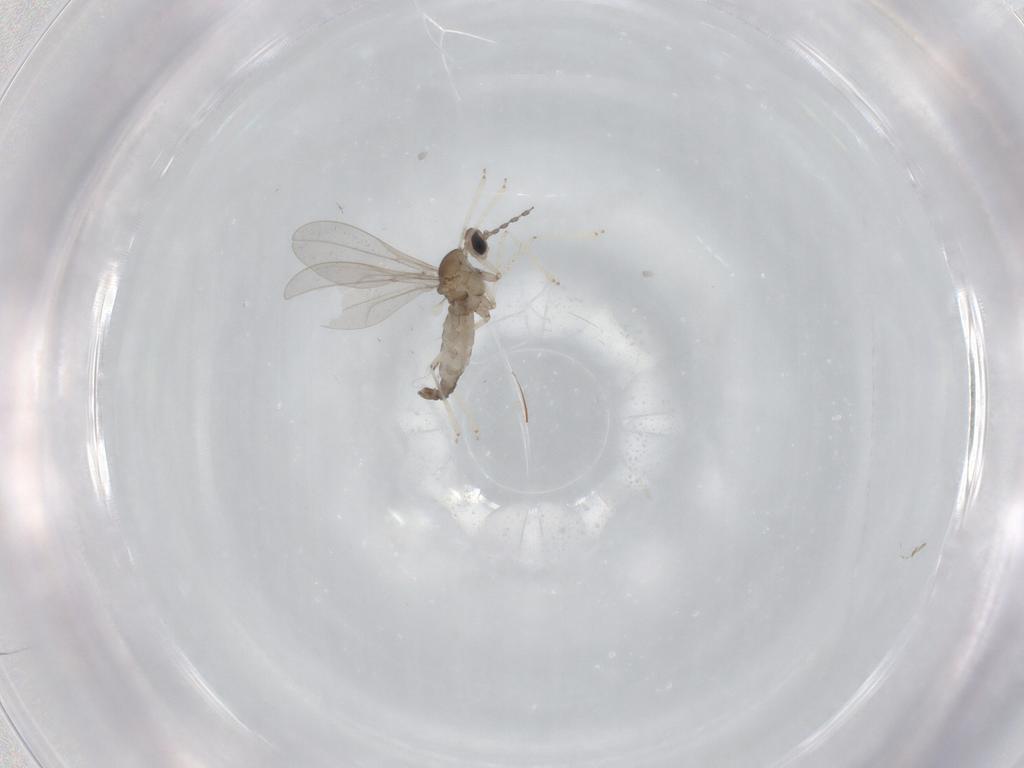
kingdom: Animalia
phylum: Arthropoda
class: Insecta
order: Diptera
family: Cecidomyiidae
